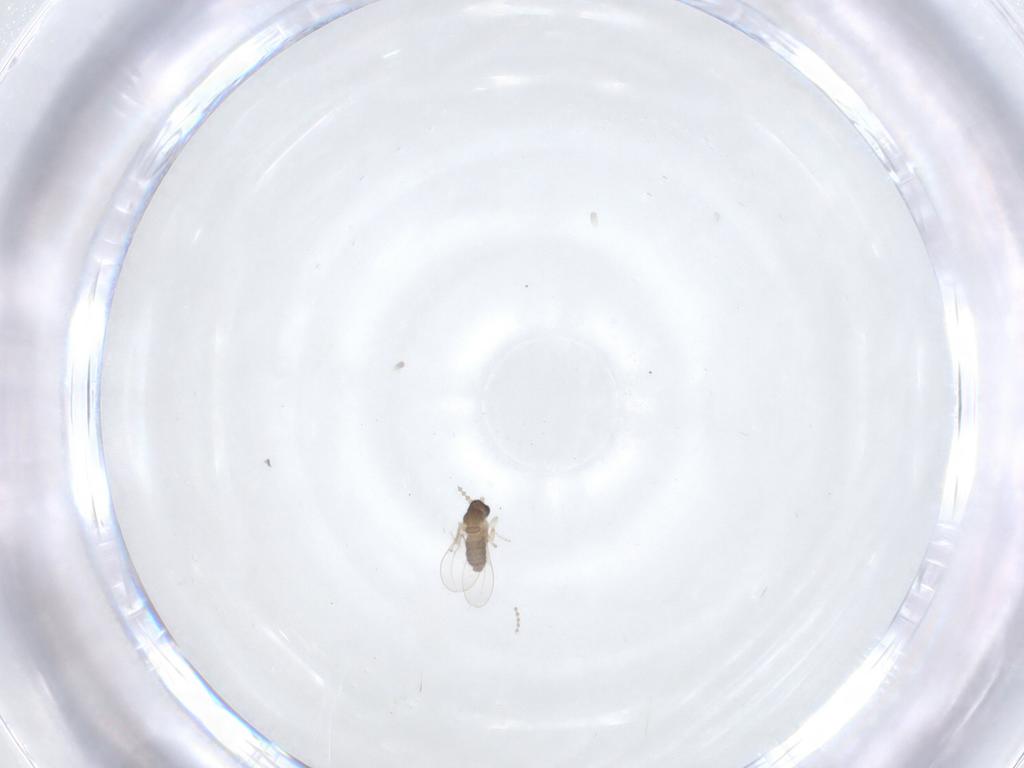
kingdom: Animalia
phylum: Arthropoda
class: Insecta
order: Diptera
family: Cecidomyiidae
